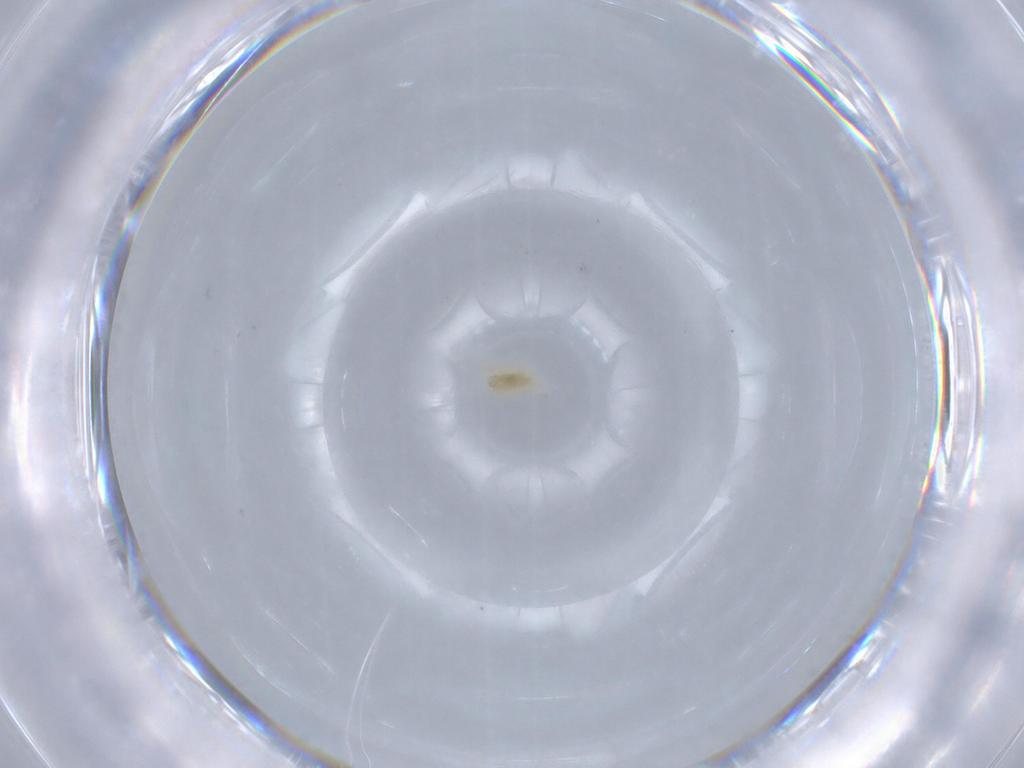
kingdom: Animalia
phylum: Arthropoda
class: Arachnida
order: Trombidiformes
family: Bdellidae
